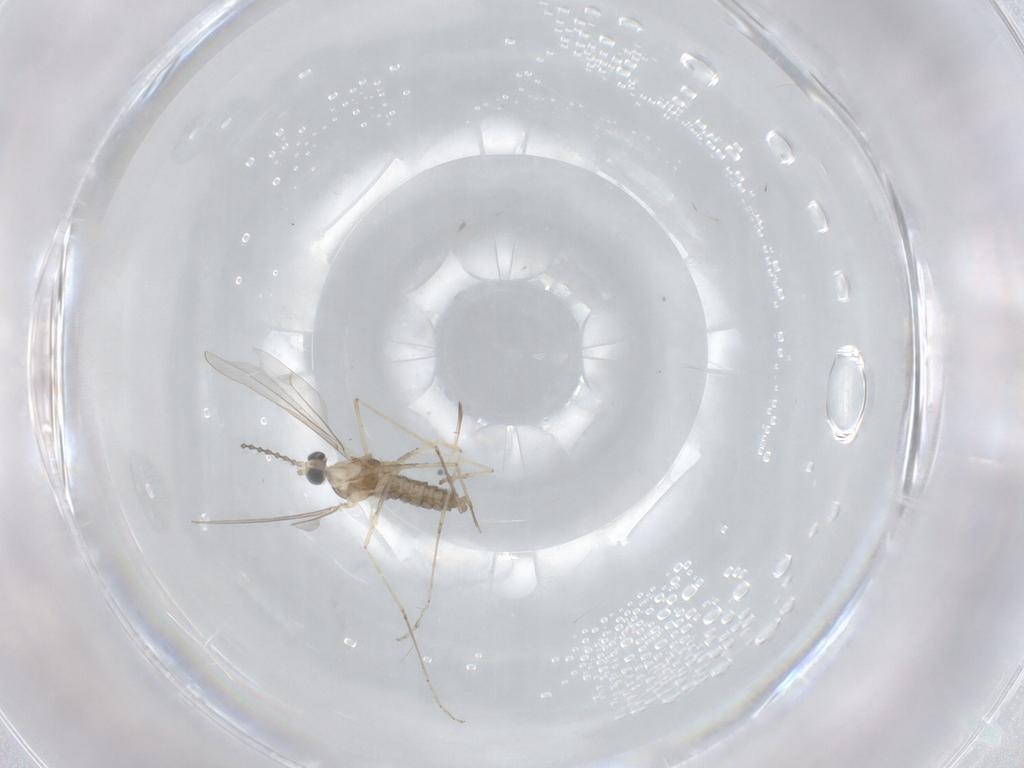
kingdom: Animalia
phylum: Arthropoda
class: Insecta
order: Diptera
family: Cecidomyiidae
